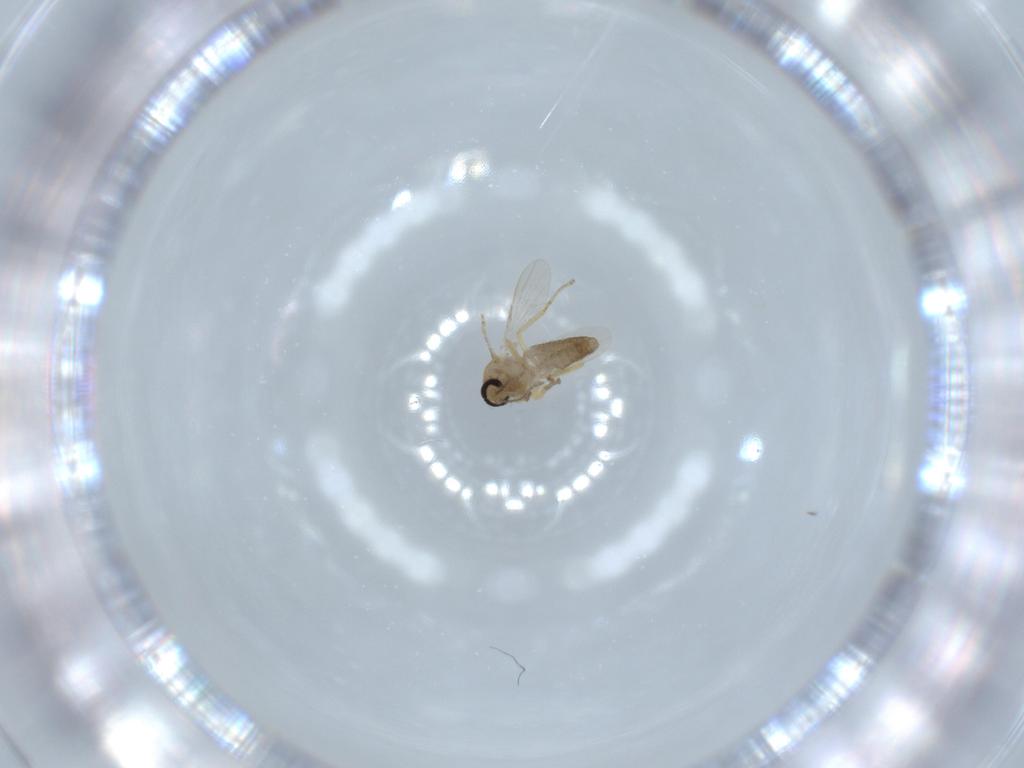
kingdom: Animalia
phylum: Arthropoda
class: Insecta
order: Diptera
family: Ceratopogonidae
